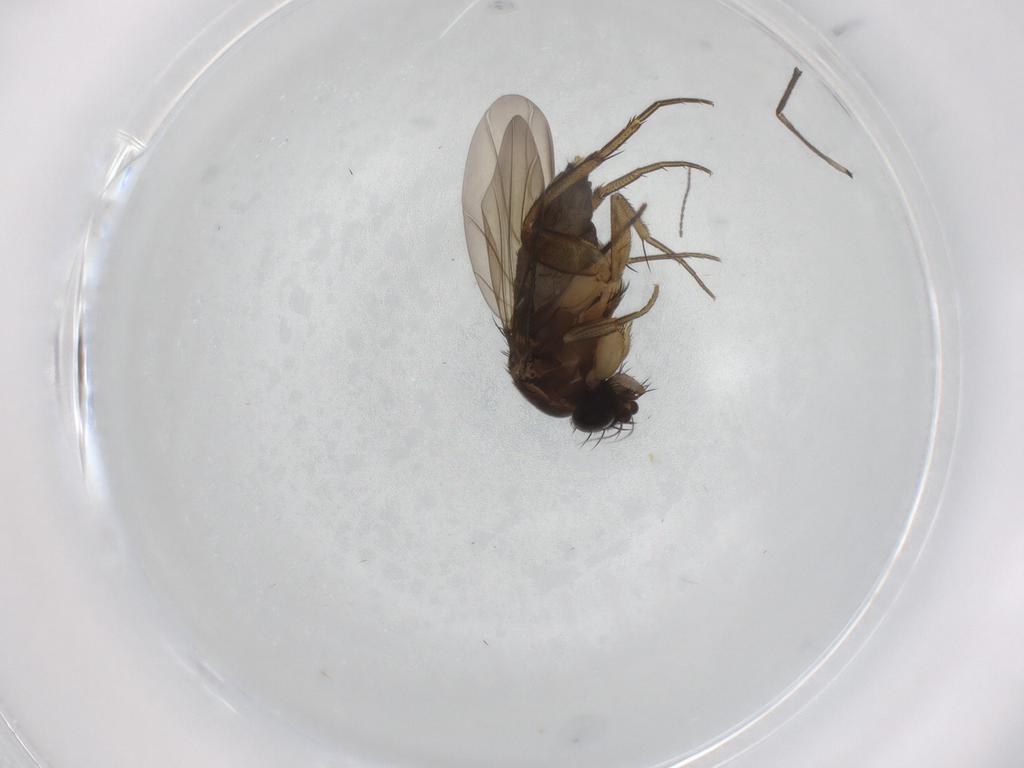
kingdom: Animalia
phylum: Arthropoda
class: Insecta
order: Diptera
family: Phoridae
